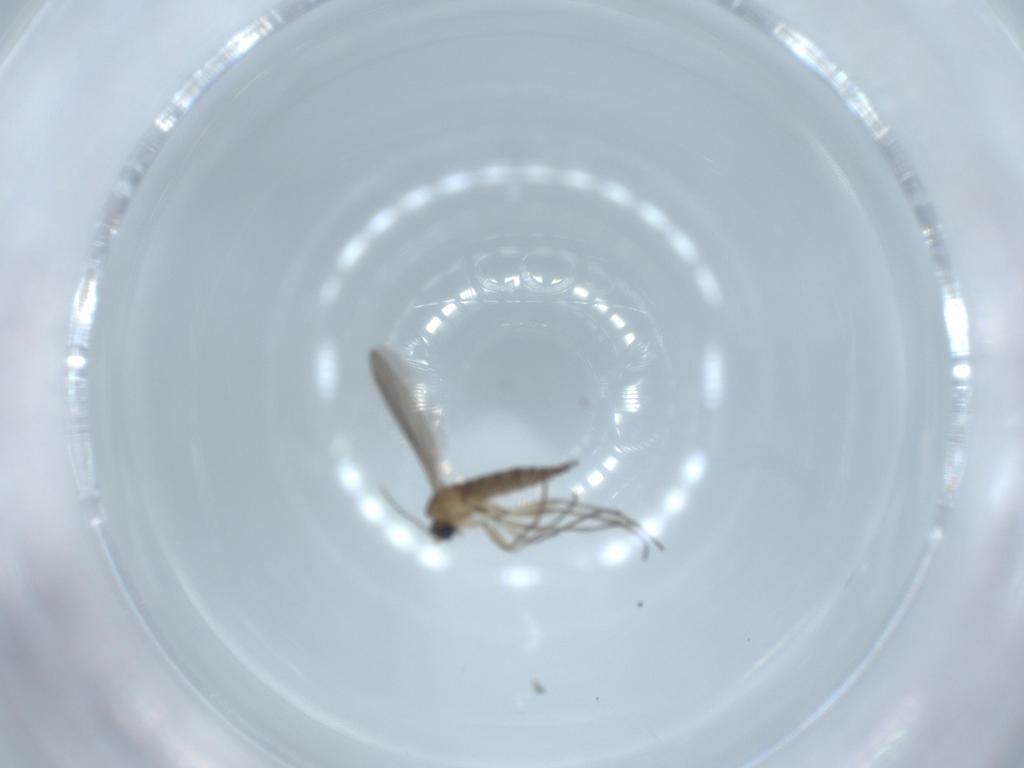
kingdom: Animalia
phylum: Arthropoda
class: Insecta
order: Diptera
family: Sciaridae
